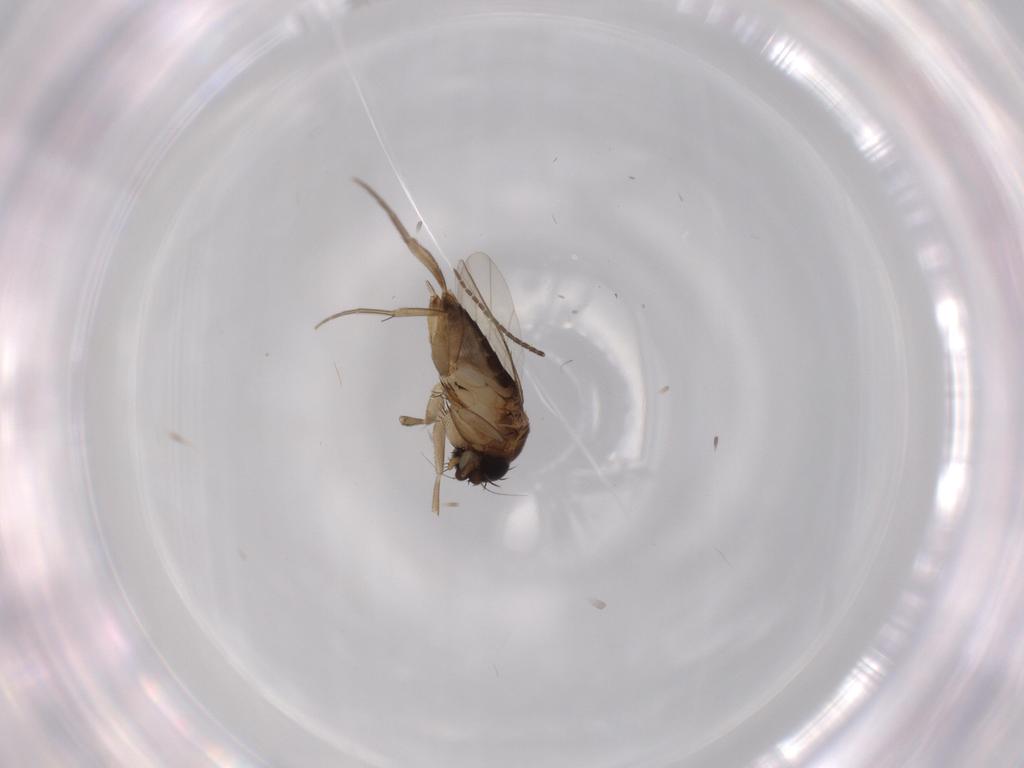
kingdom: Animalia
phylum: Arthropoda
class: Insecta
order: Diptera
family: Sciaridae
